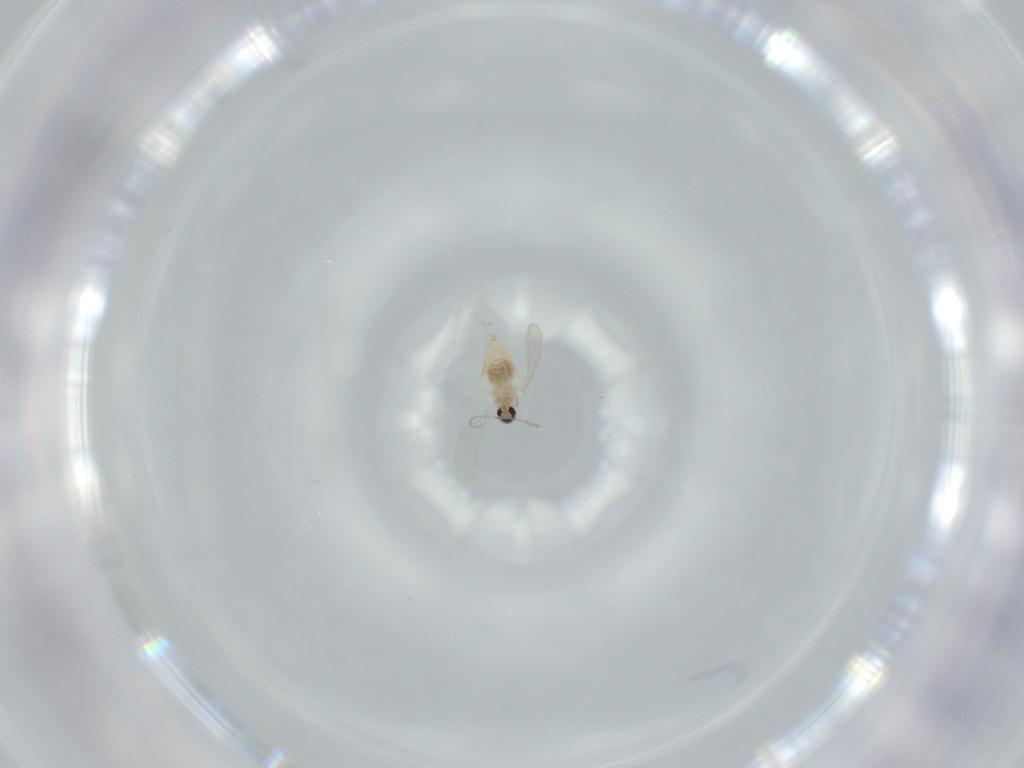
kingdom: Animalia
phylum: Arthropoda
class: Insecta
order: Diptera
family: Cecidomyiidae
